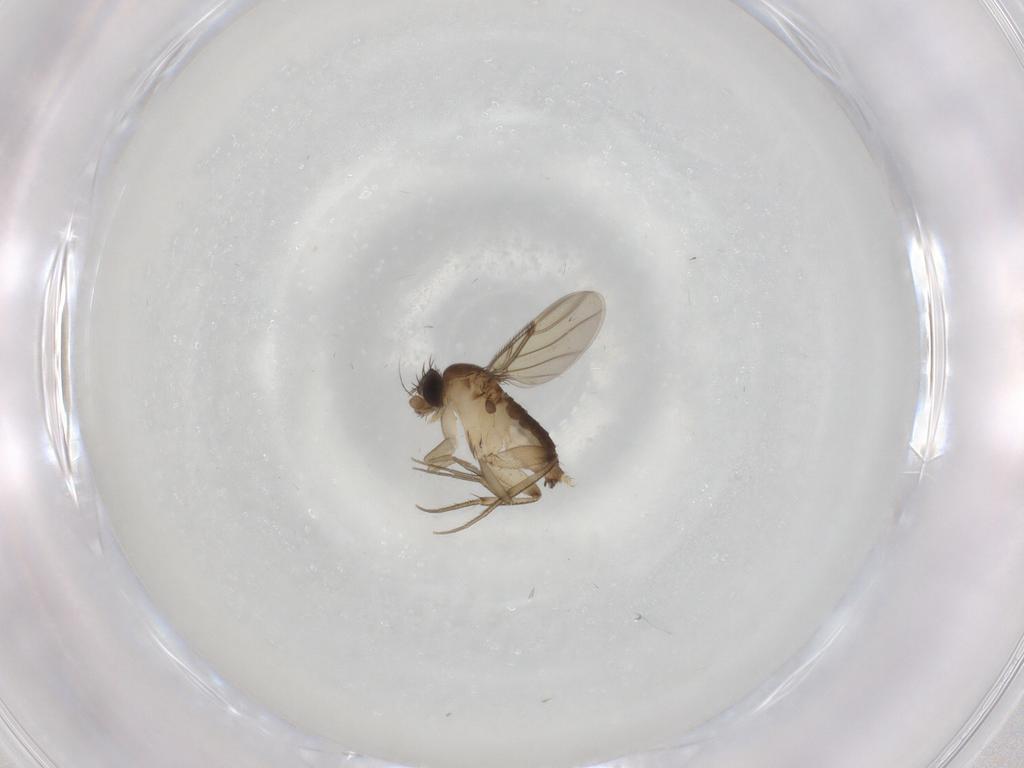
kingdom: Animalia
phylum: Arthropoda
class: Insecta
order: Diptera
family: Phoridae
